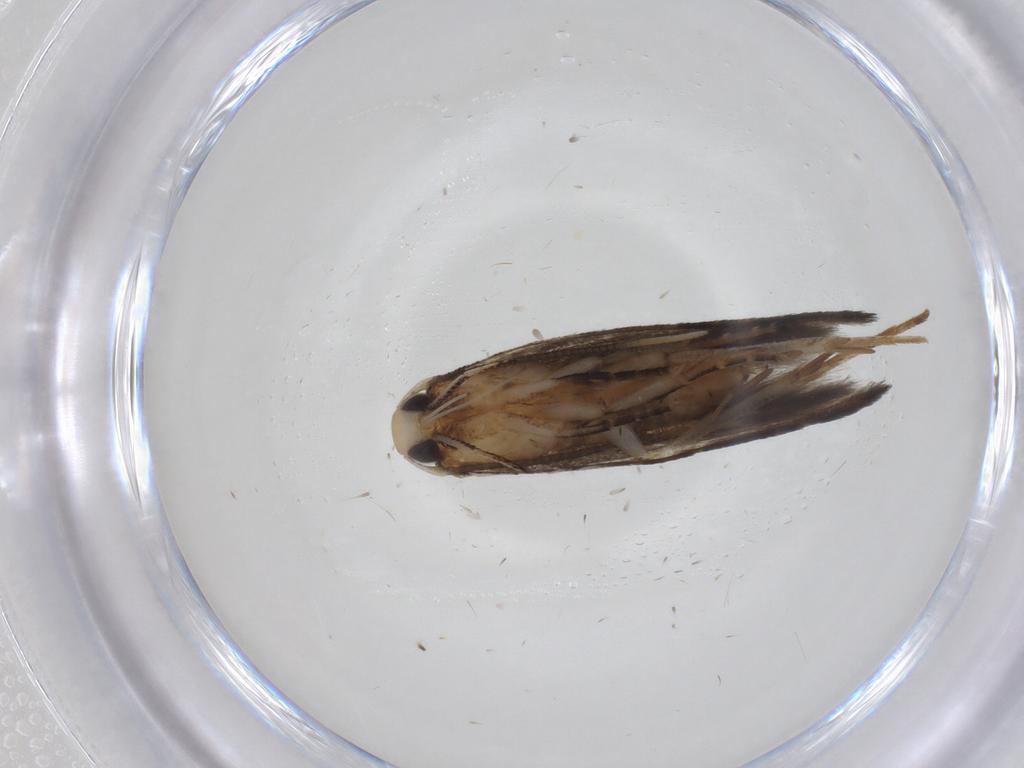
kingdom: Animalia
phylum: Arthropoda
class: Insecta
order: Lepidoptera
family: Cosmopterigidae
